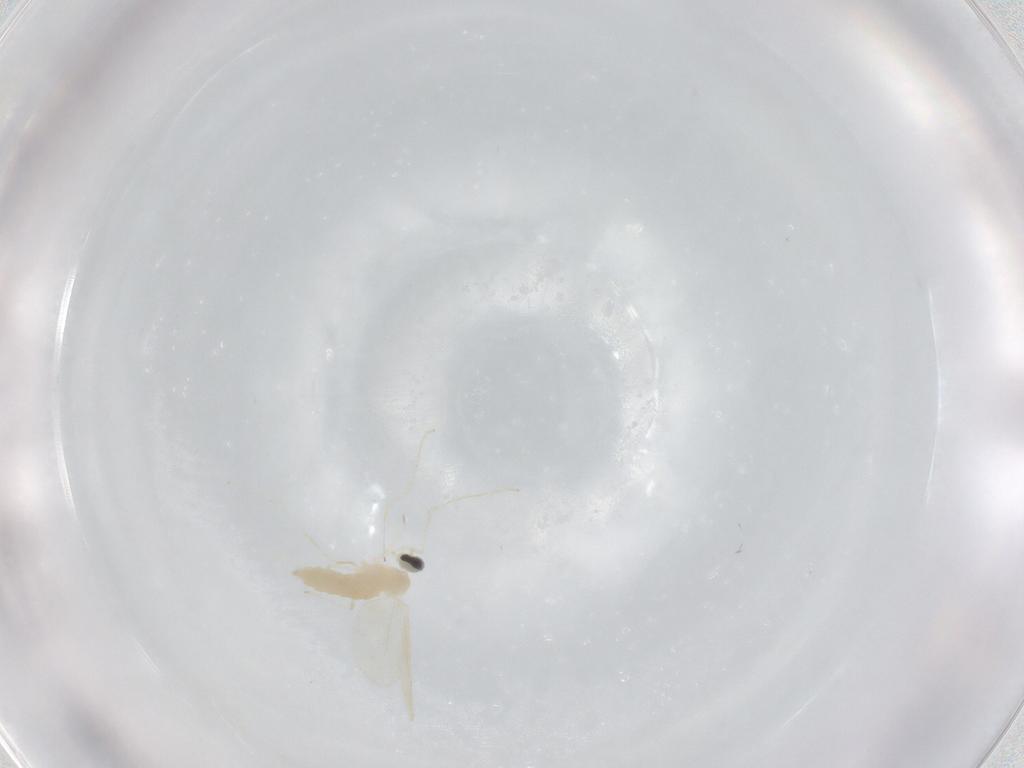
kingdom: Animalia
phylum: Arthropoda
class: Insecta
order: Diptera
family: Cecidomyiidae
